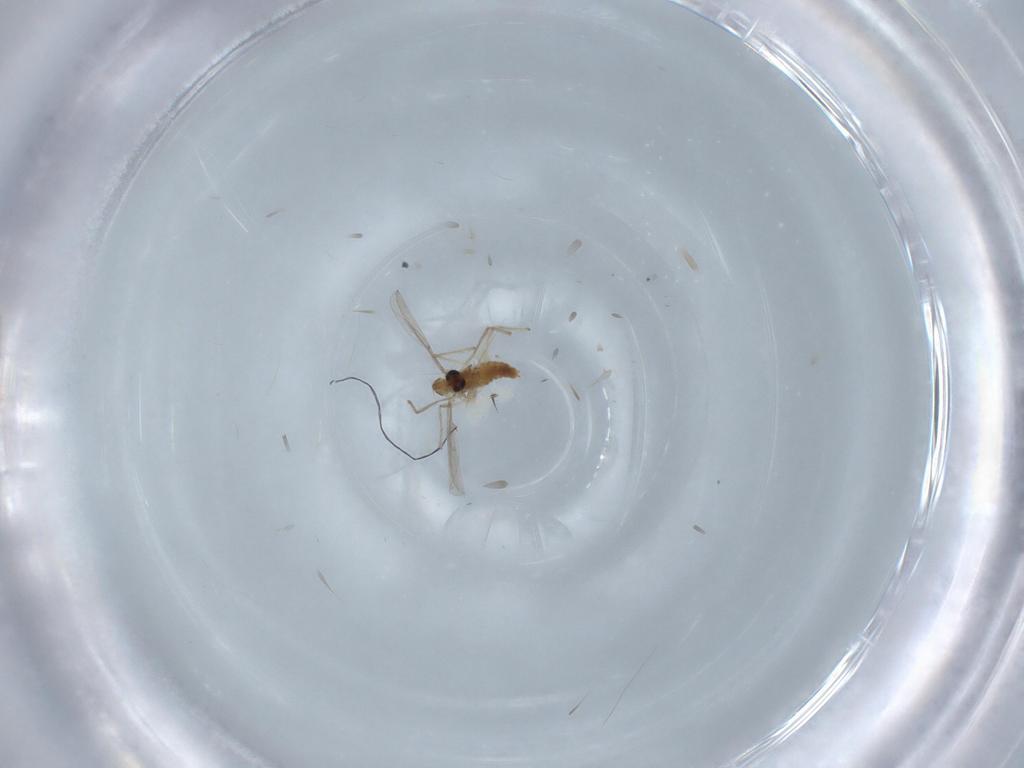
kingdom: Animalia
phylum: Arthropoda
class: Insecta
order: Diptera
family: Chironomidae
